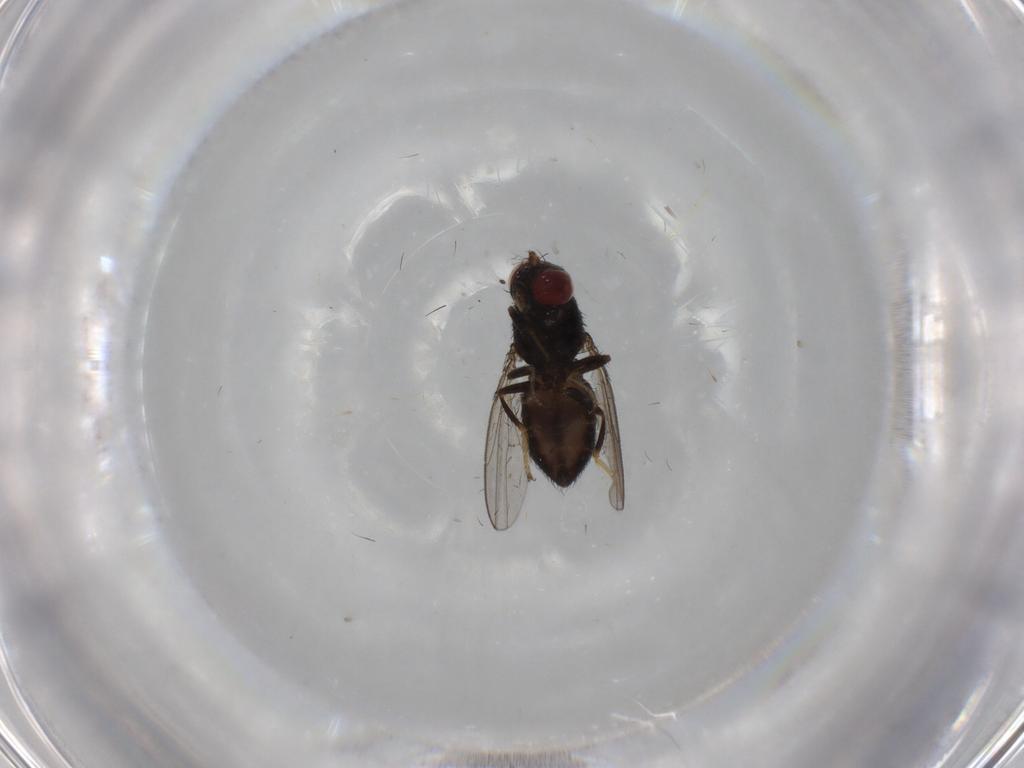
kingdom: Animalia
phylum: Arthropoda
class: Insecta
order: Diptera
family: Ephydridae
